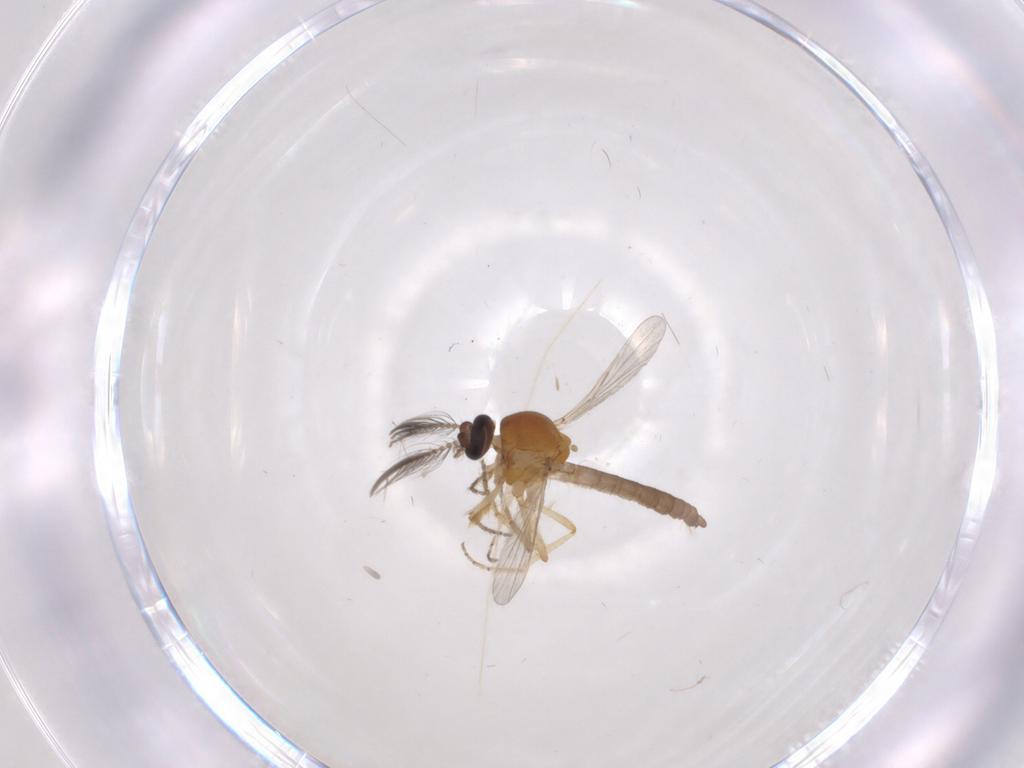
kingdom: Animalia
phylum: Arthropoda
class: Insecta
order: Diptera
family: Ceratopogonidae
